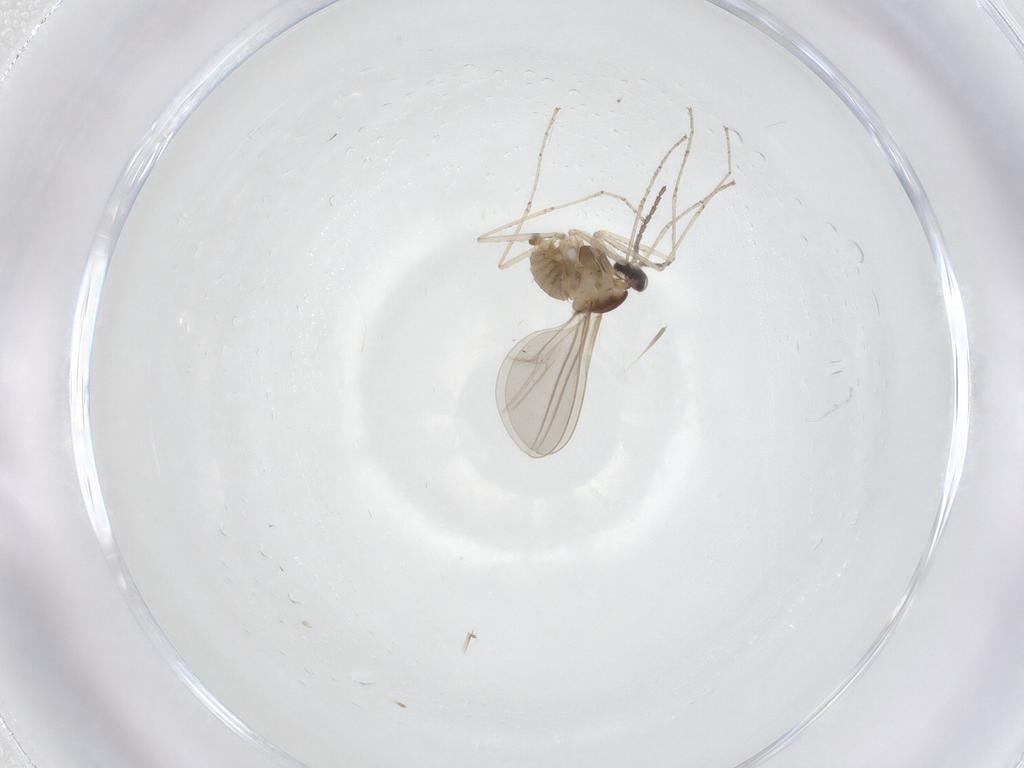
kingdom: Animalia
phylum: Arthropoda
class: Insecta
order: Diptera
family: Cecidomyiidae
